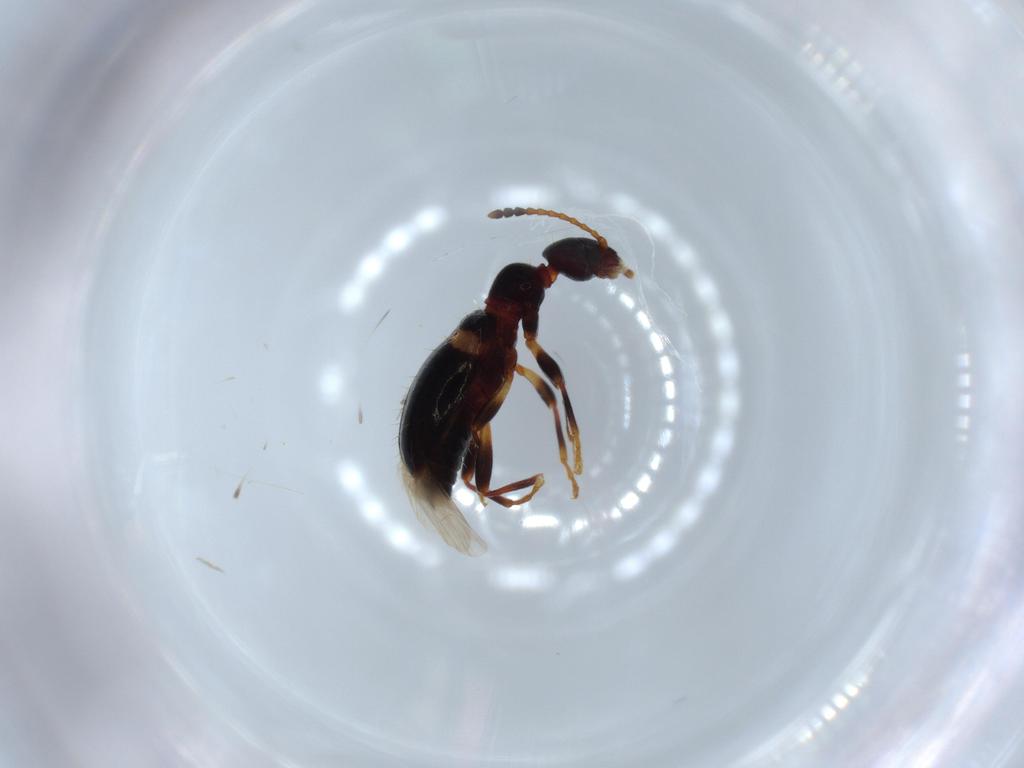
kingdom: Animalia
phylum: Arthropoda
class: Insecta
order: Coleoptera
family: Anthicidae
